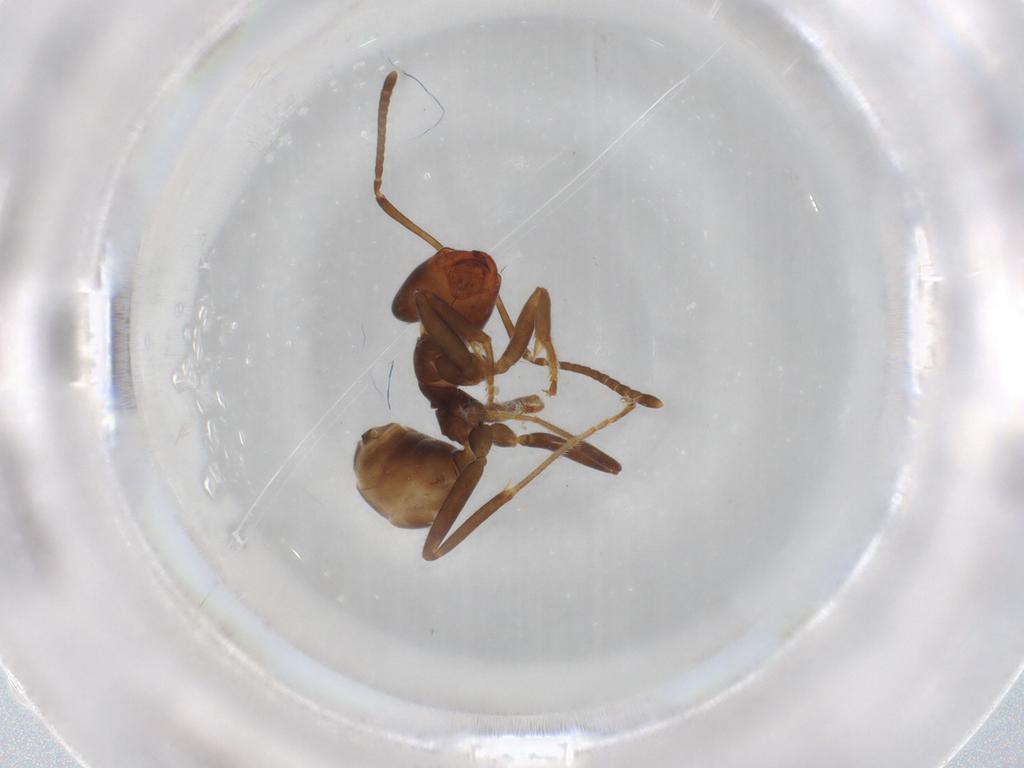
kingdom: Animalia
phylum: Arthropoda
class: Insecta
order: Hymenoptera
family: Formicidae
